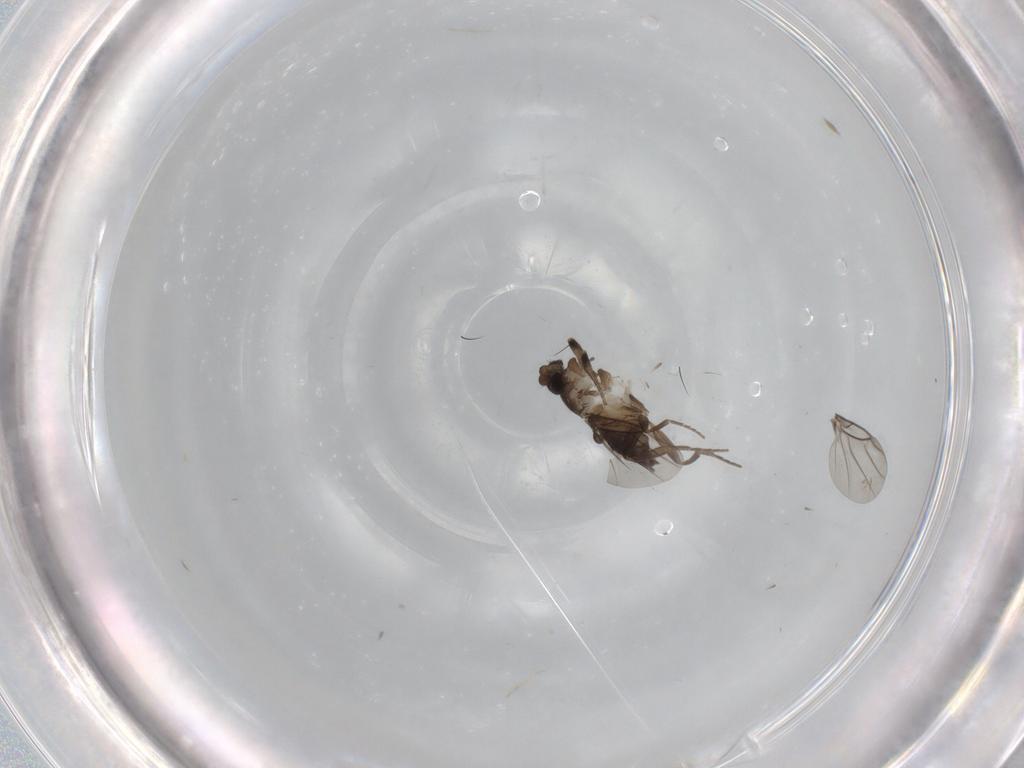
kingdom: Animalia
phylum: Arthropoda
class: Insecta
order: Diptera
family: Phoridae
